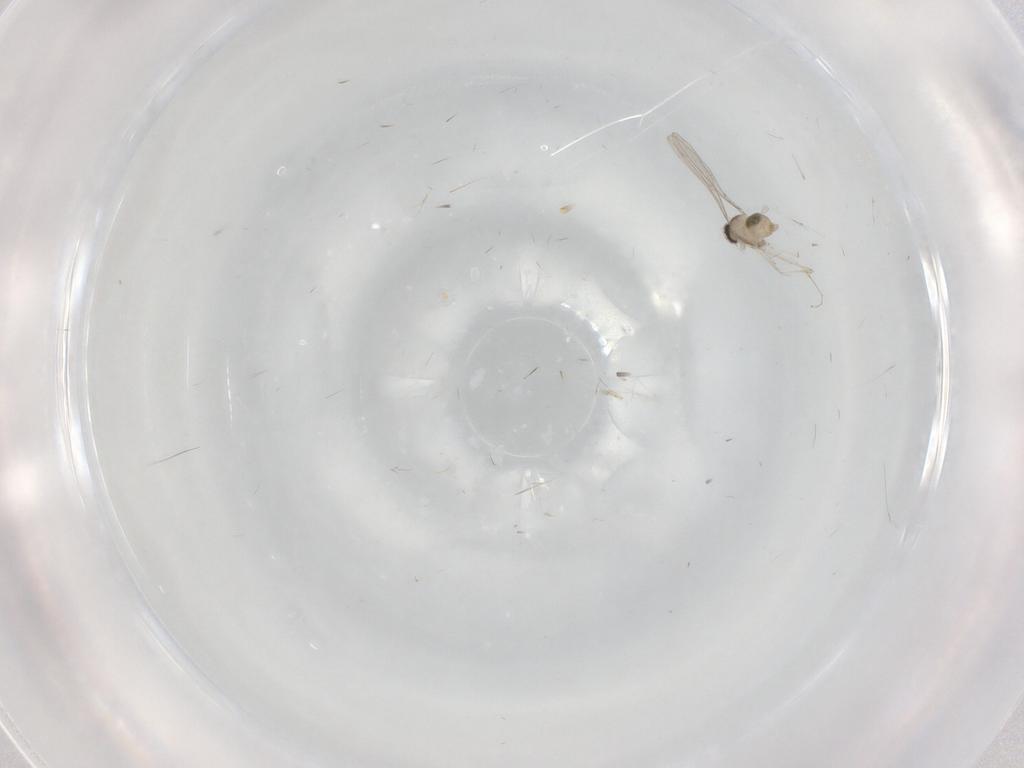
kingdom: Animalia
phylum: Arthropoda
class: Insecta
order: Diptera
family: Cecidomyiidae
